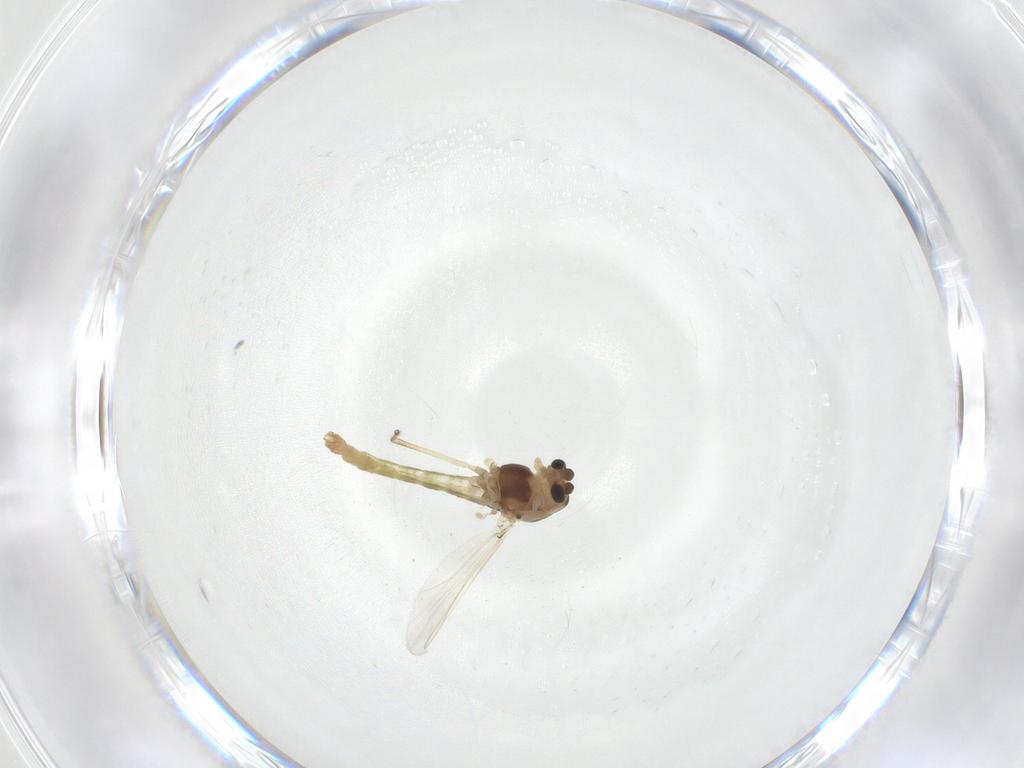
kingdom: Animalia
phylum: Arthropoda
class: Insecta
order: Diptera
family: Chironomidae
